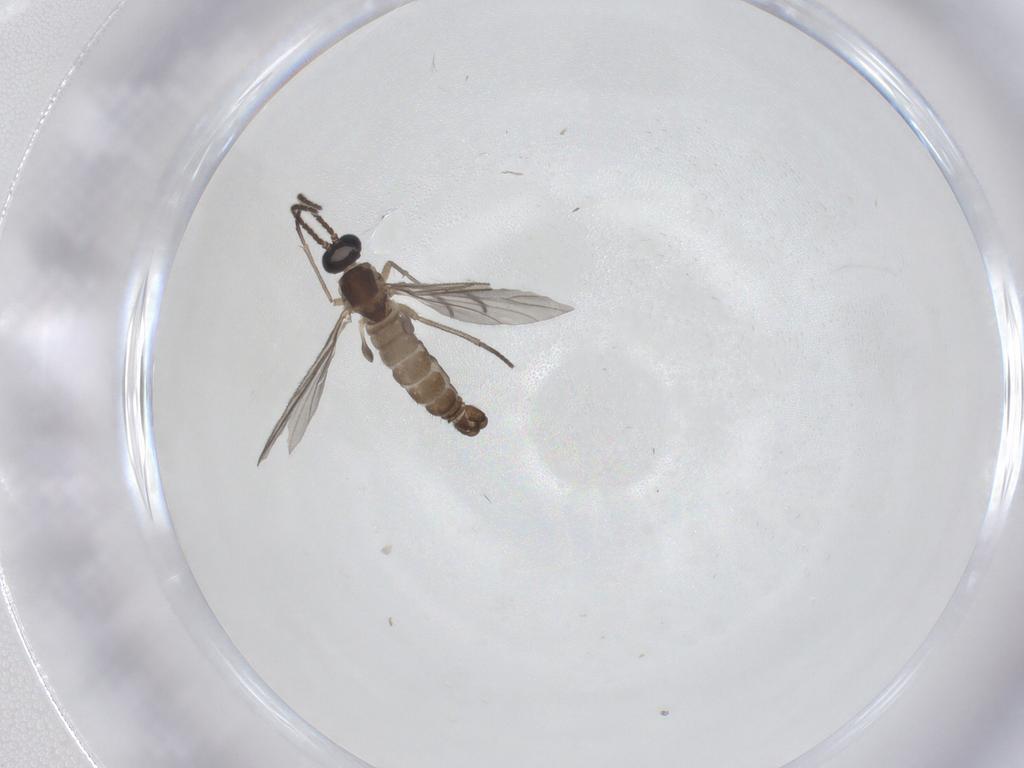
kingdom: Animalia
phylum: Arthropoda
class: Insecta
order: Diptera
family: Sciaridae
